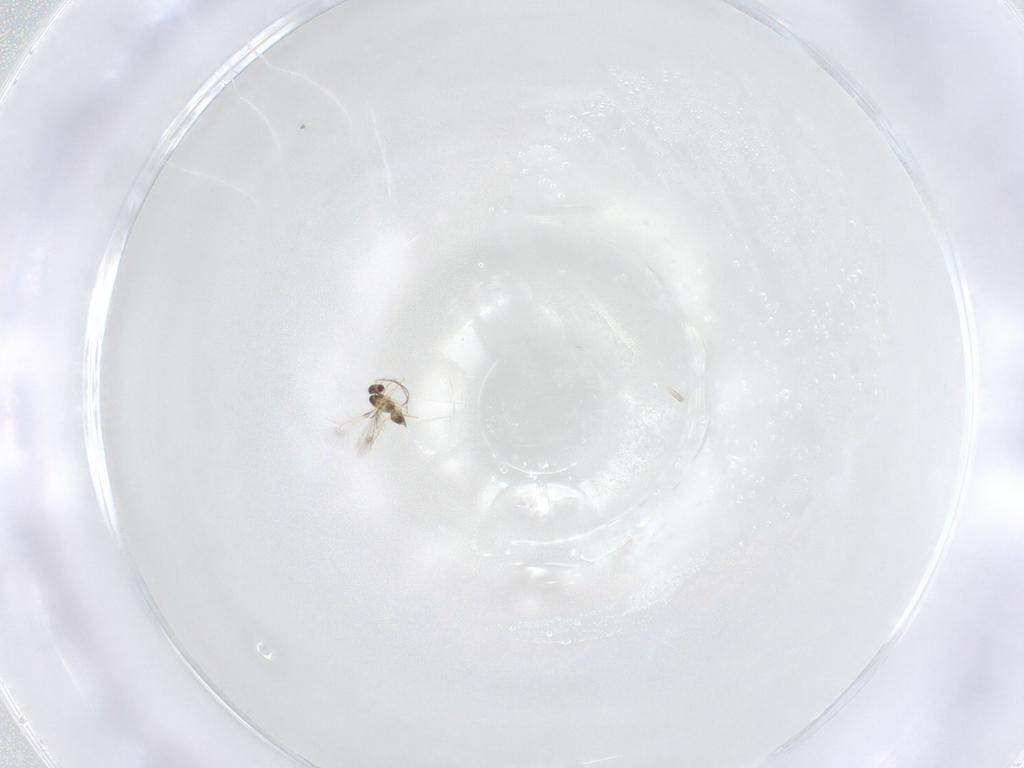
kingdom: Animalia
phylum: Arthropoda
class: Insecta
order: Hymenoptera
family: Mymaridae
